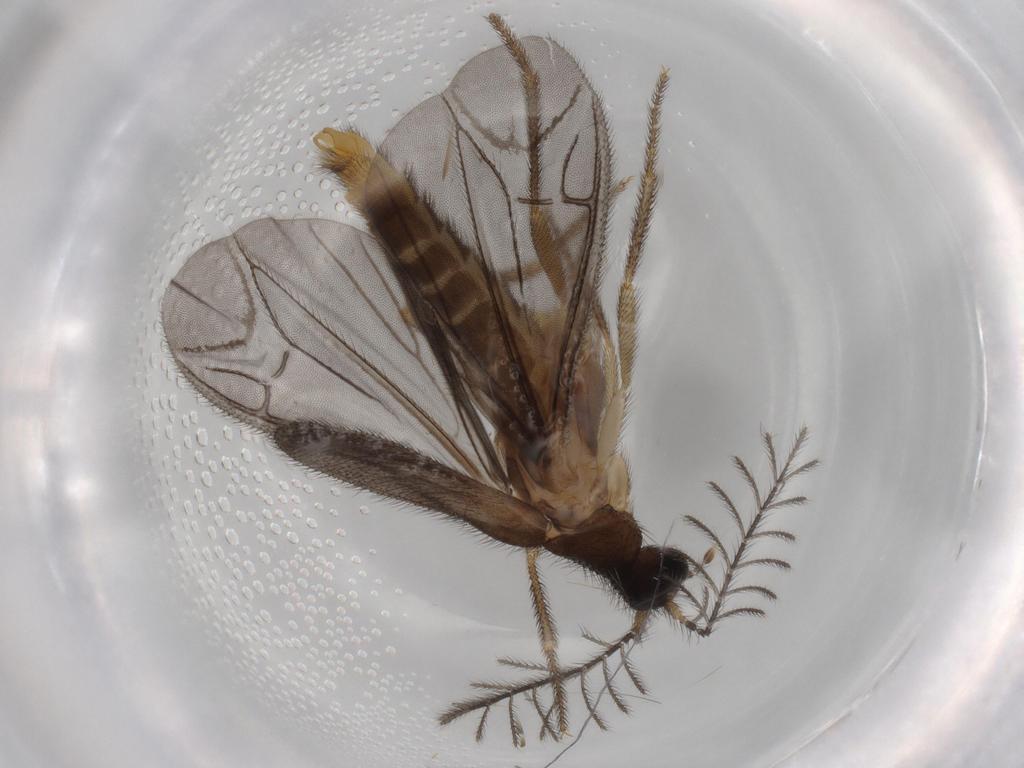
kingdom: Animalia
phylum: Arthropoda
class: Insecta
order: Coleoptera
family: Phengodidae
